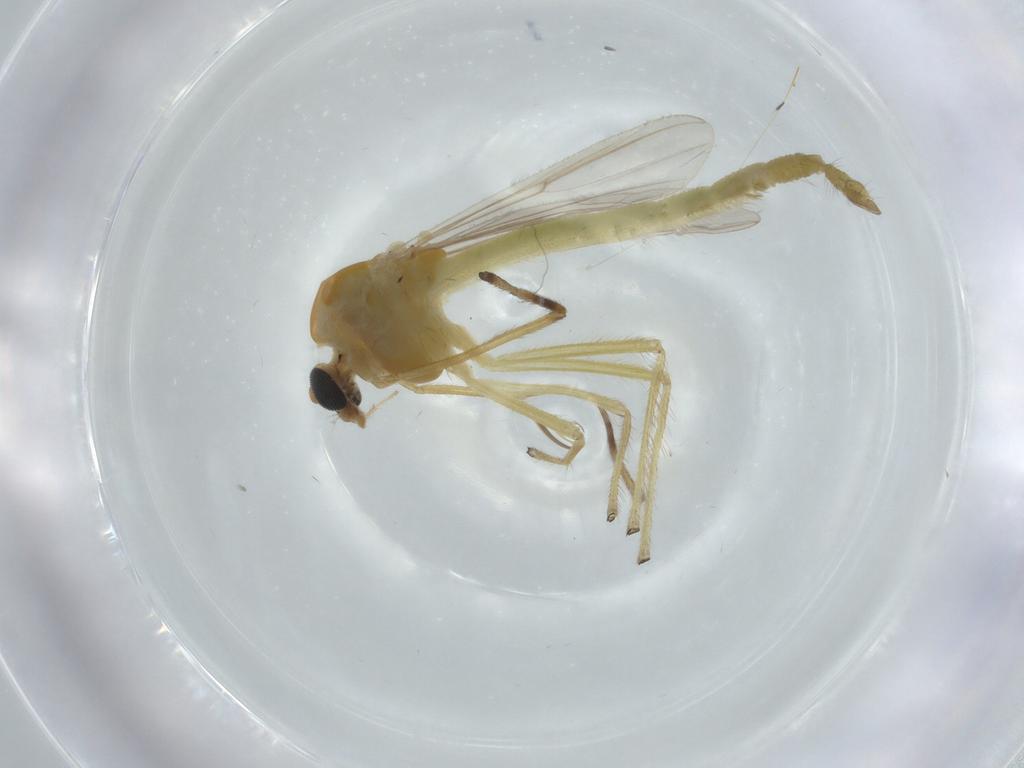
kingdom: Animalia
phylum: Arthropoda
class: Insecta
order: Diptera
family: Chironomidae
